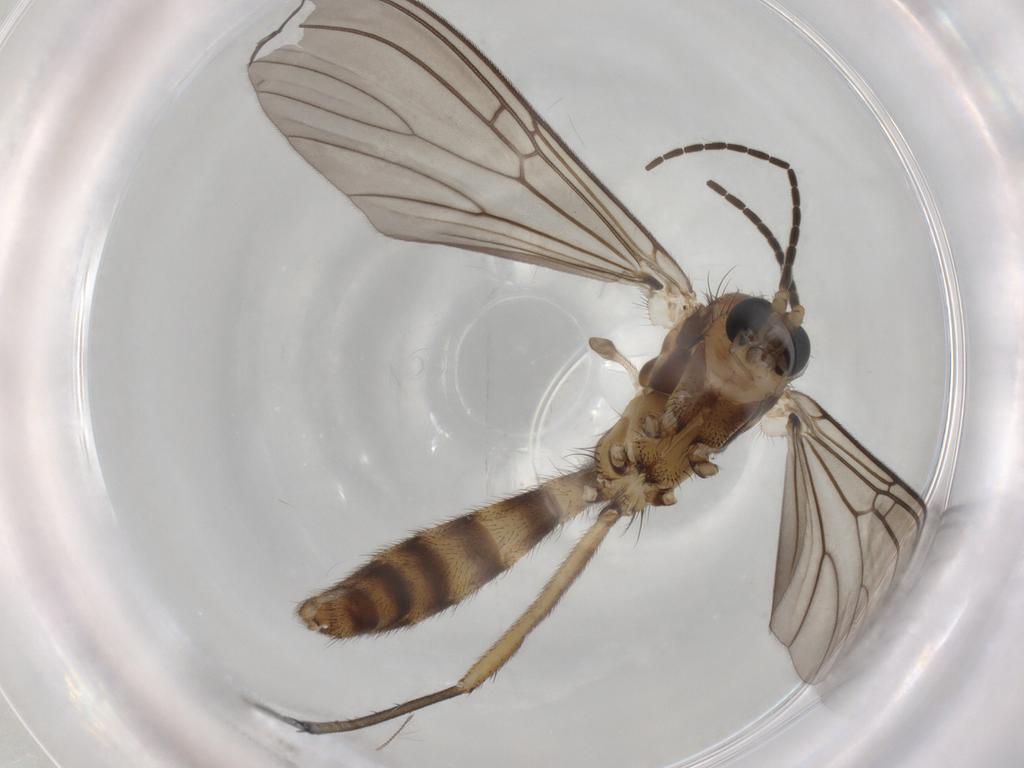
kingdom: Animalia
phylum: Arthropoda
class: Insecta
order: Diptera
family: Mycetophilidae
